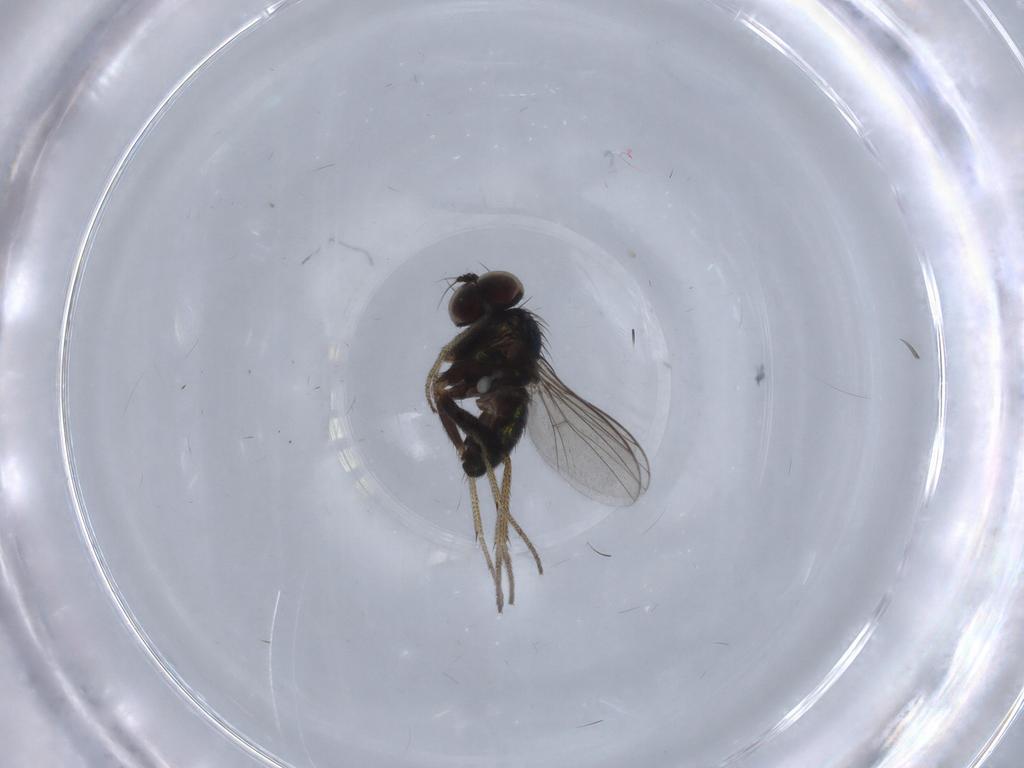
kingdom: Animalia
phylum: Arthropoda
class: Insecta
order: Diptera
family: Dolichopodidae
